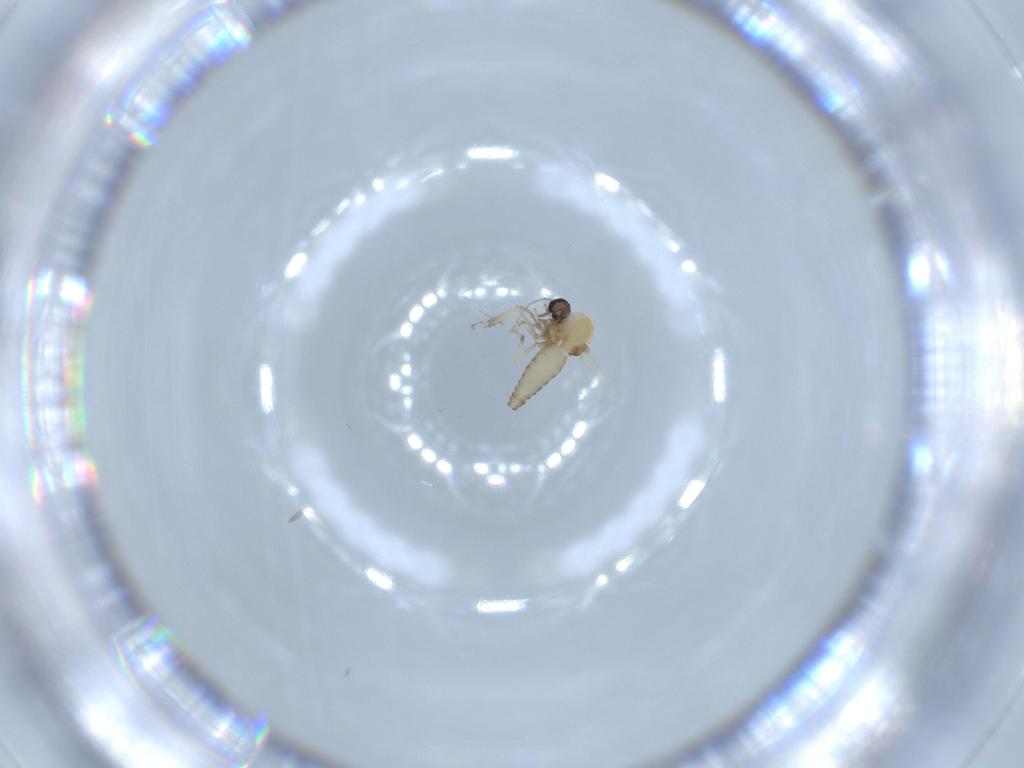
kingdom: Animalia
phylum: Arthropoda
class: Insecta
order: Diptera
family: Ceratopogonidae
